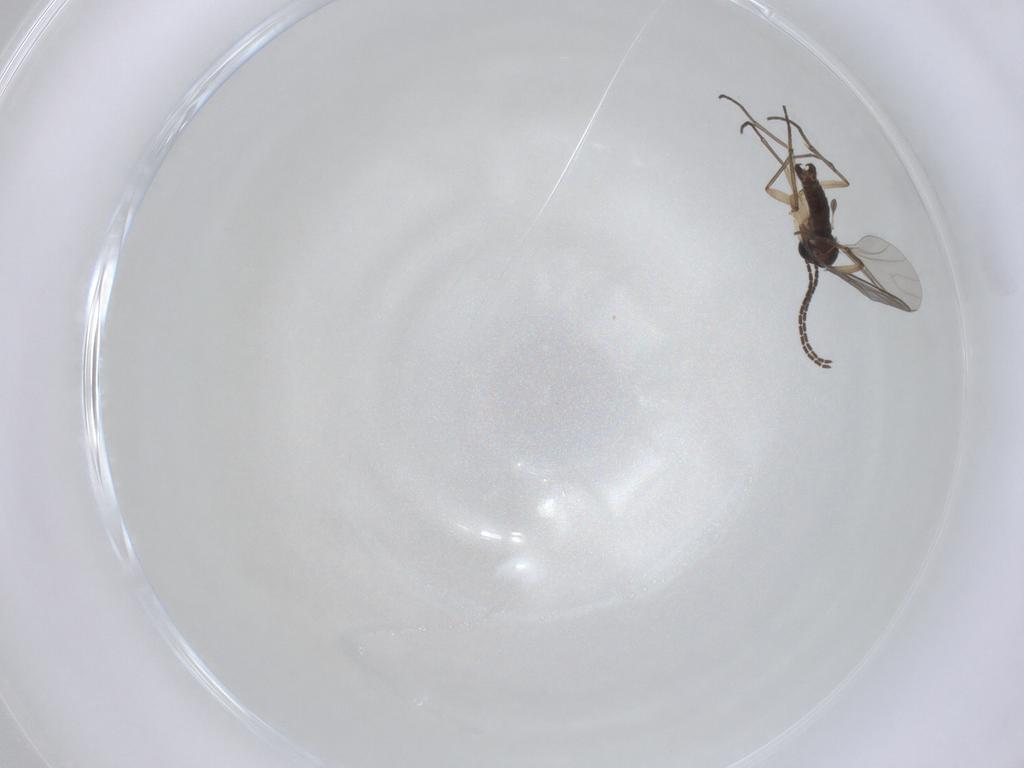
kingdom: Animalia
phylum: Arthropoda
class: Insecta
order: Diptera
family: Sciaridae
